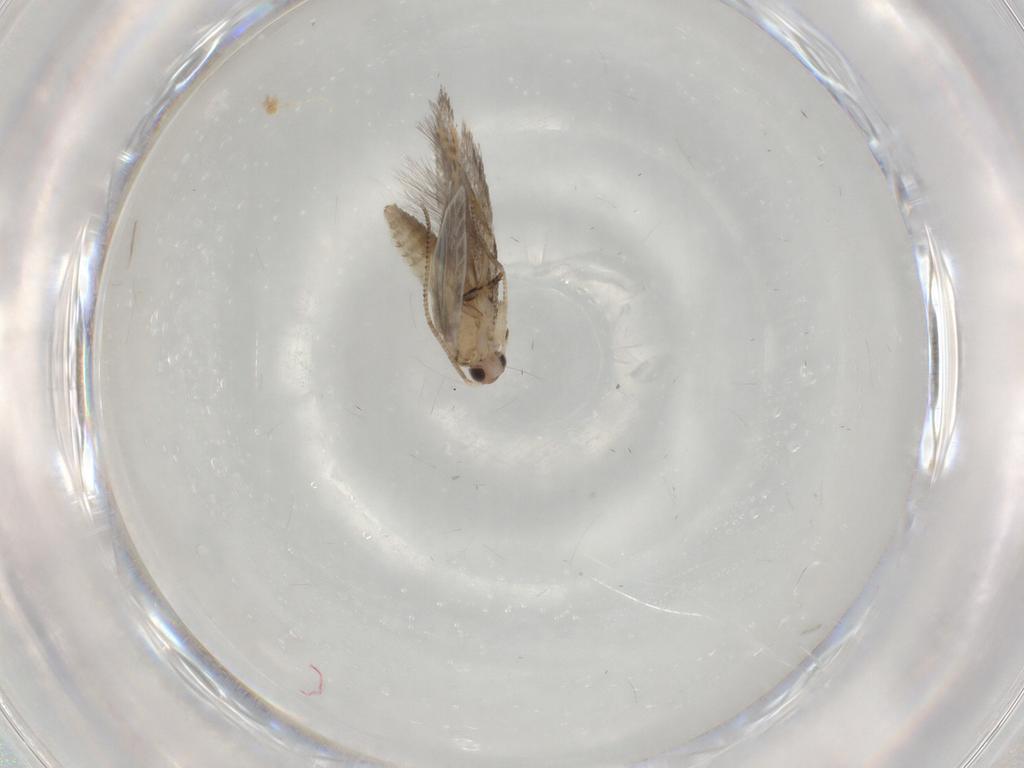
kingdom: Animalia
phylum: Arthropoda
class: Insecta
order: Lepidoptera
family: Meessiidae
